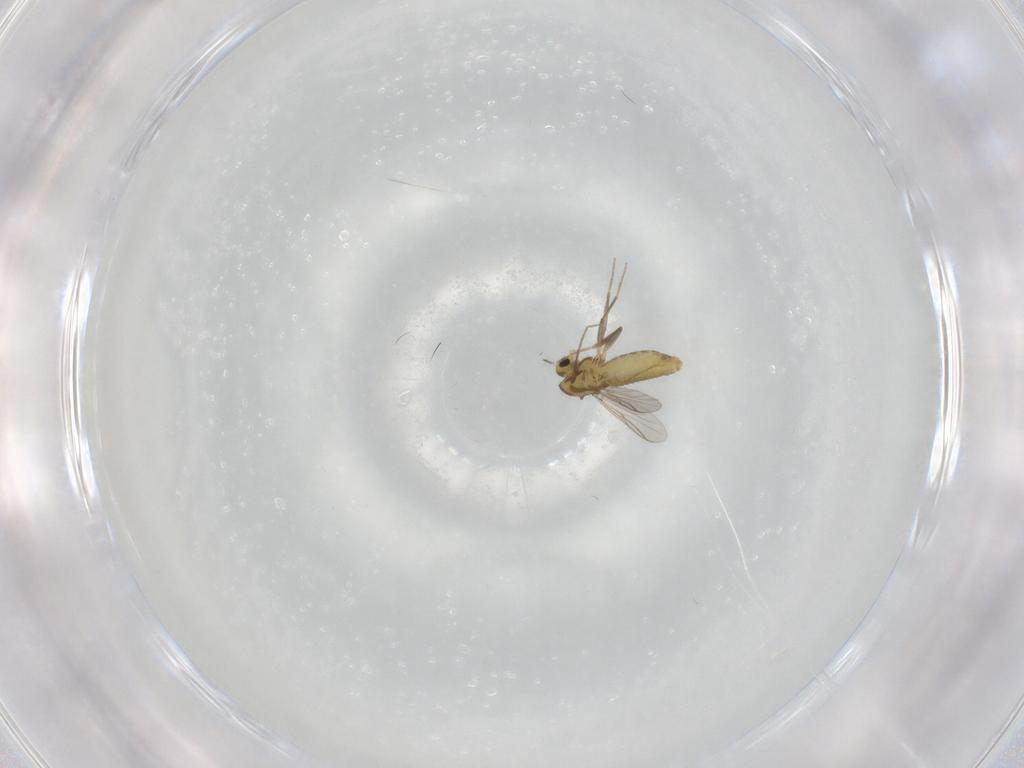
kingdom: Animalia
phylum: Arthropoda
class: Insecta
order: Diptera
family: Chironomidae
